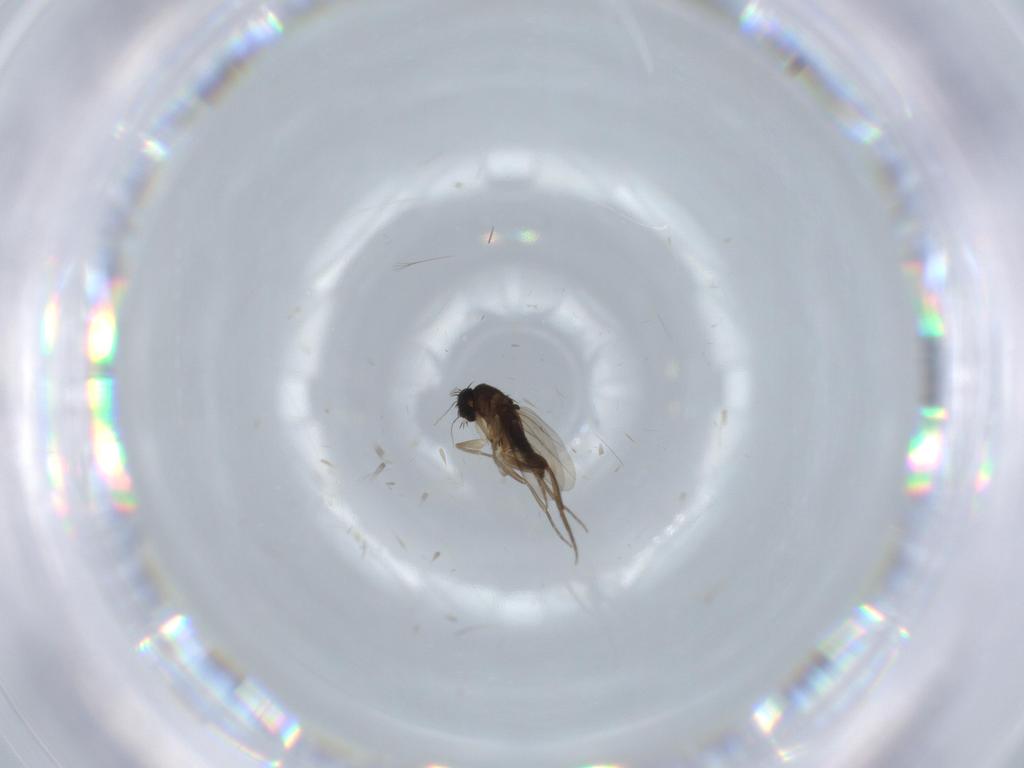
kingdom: Animalia
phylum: Arthropoda
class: Insecta
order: Diptera
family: Phoridae
